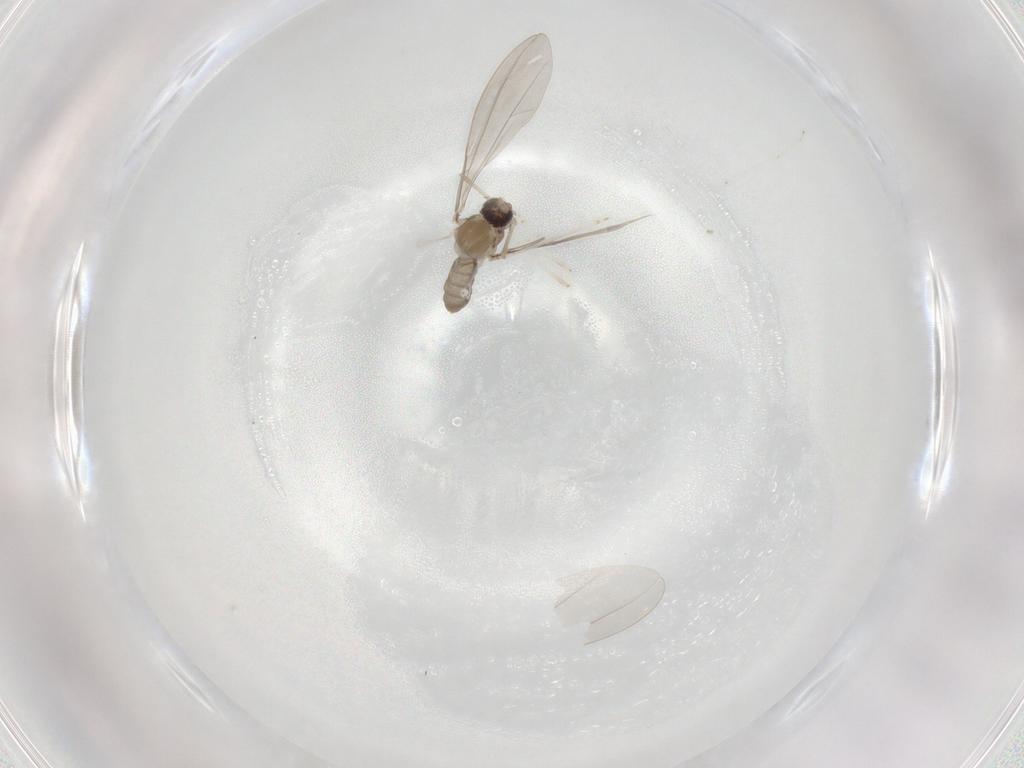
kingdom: Animalia
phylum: Arthropoda
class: Insecta
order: Diptera
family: Cecidomyiidae
